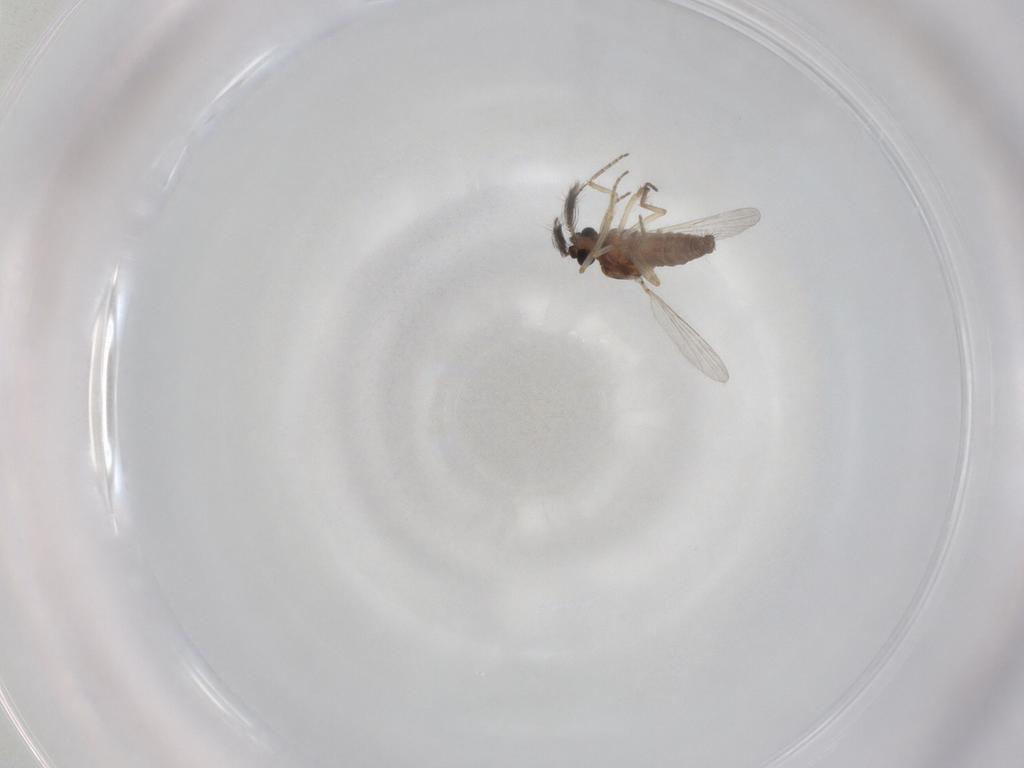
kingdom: Animalia
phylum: Arthropoda
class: Insecta
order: Diptera
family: Ceratopogonidae
